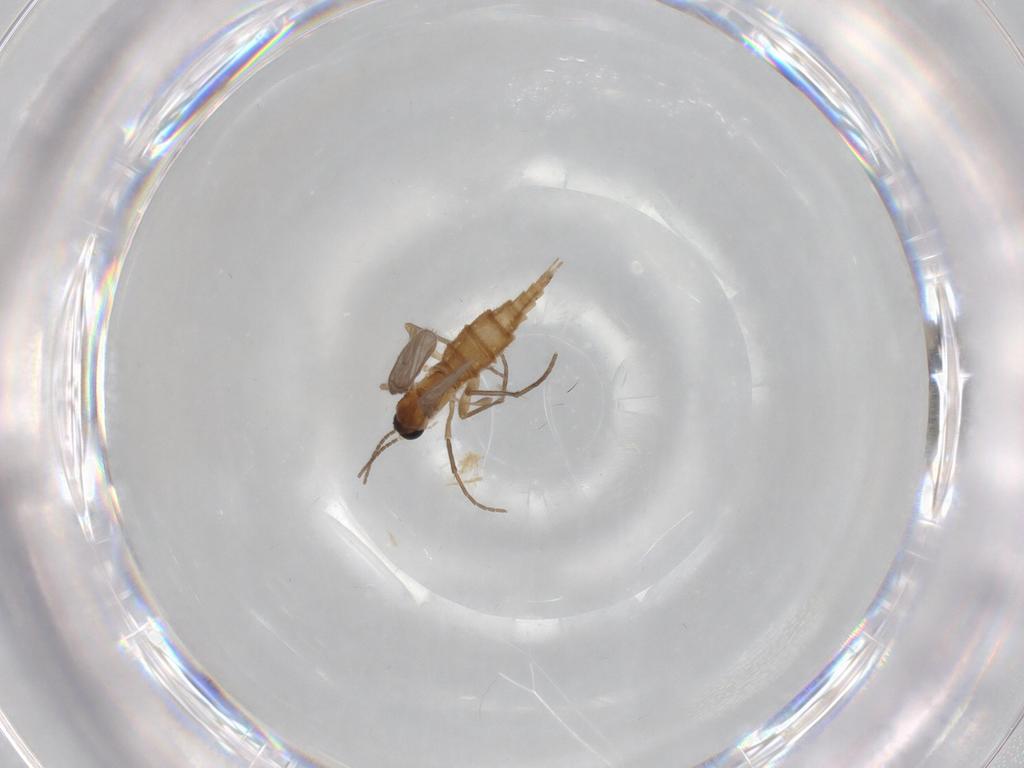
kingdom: Animalia
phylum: Arthropoda
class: Insecta
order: Diptera
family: Sciaridae
